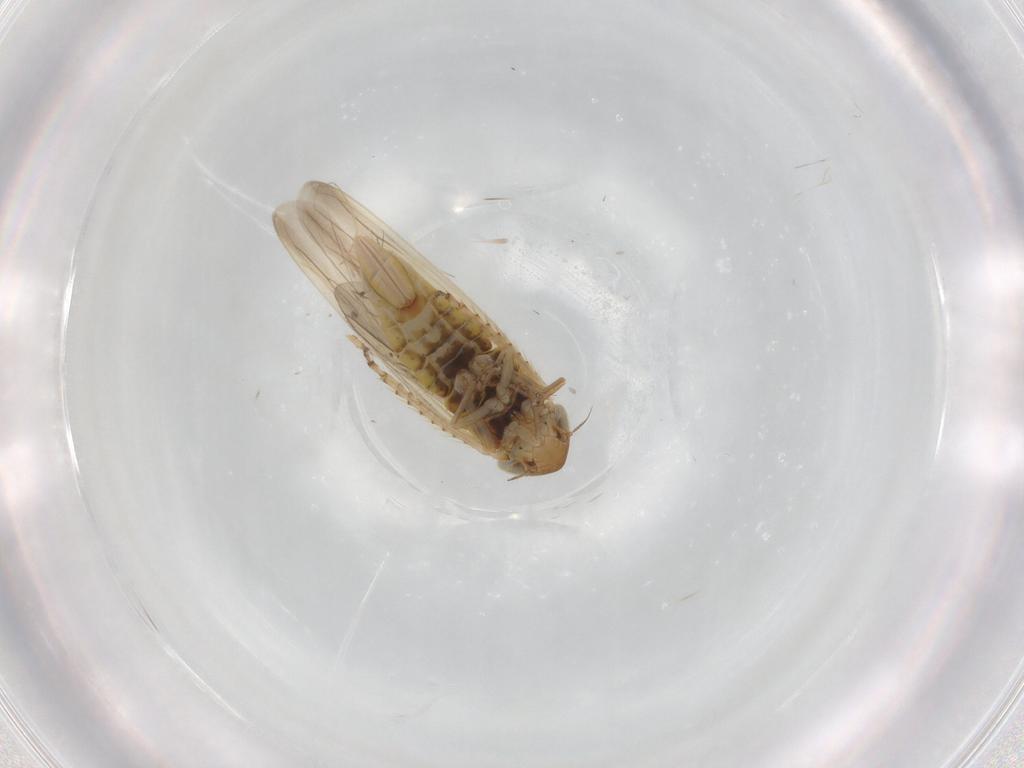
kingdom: Animalia
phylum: Arthropoda
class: Insecta
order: Hemiptera
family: Cicadellidae
